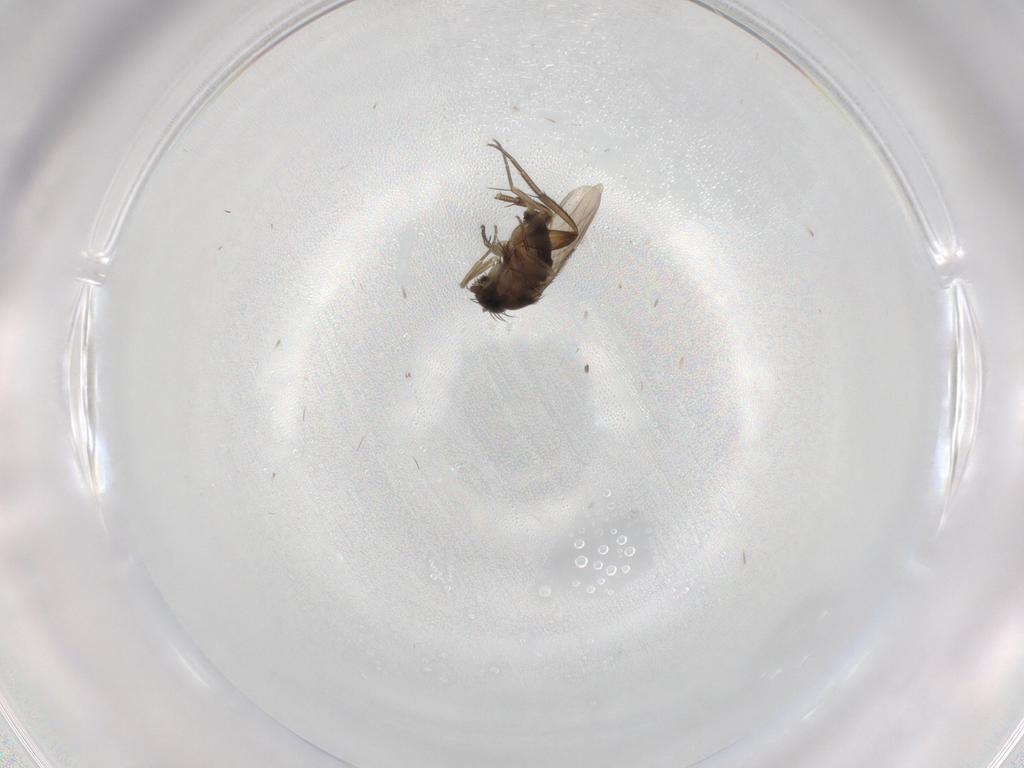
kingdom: Animalia
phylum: Arthropoda
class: Insecta
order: Diptera
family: Phoridae
